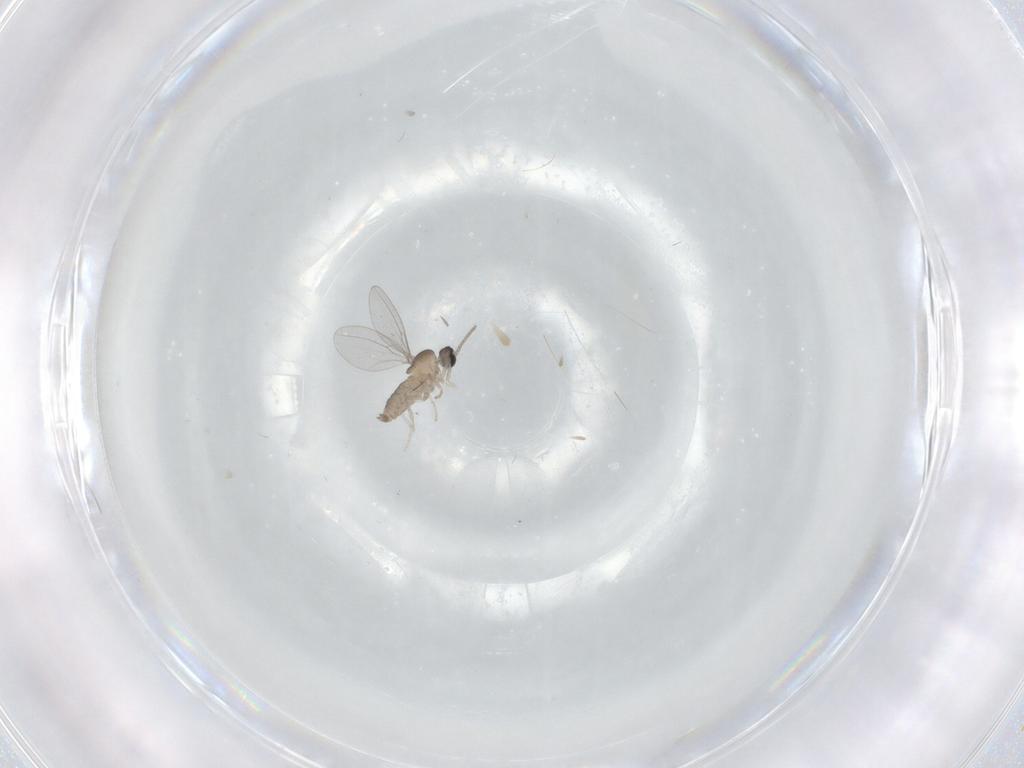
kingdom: Animalia
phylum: Arthropoda
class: Insecta
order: Diptera
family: Cecidomyiidae
